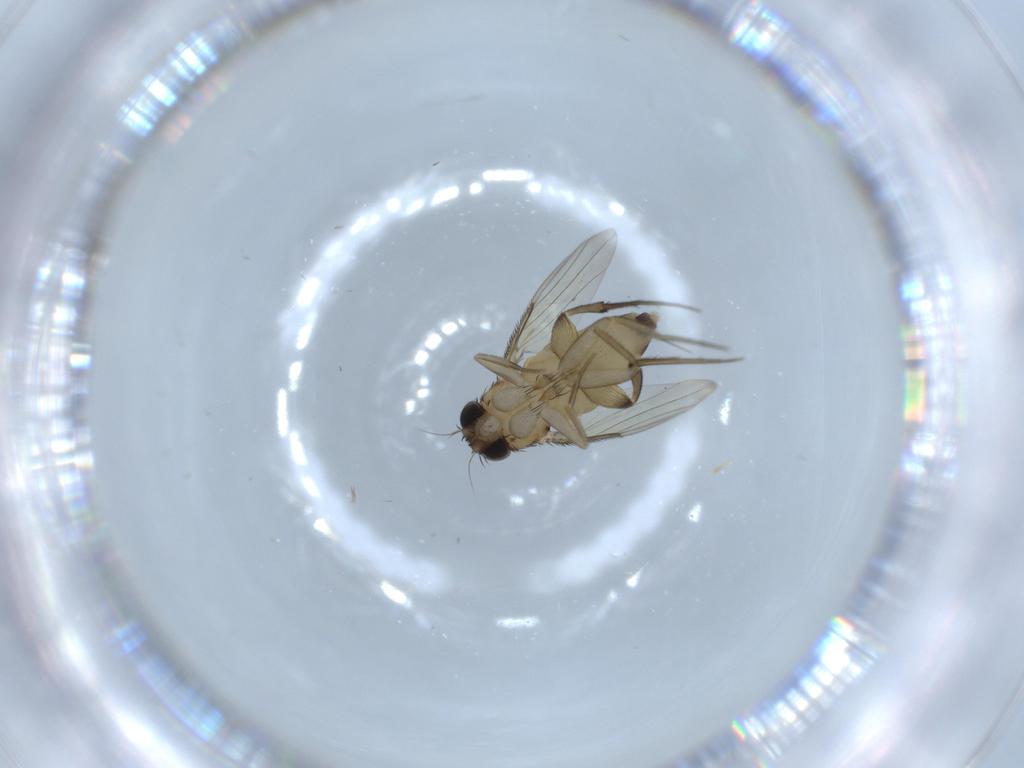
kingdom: Animalia
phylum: Arthropoda
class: Insecta
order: Diptera
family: Phoridae
